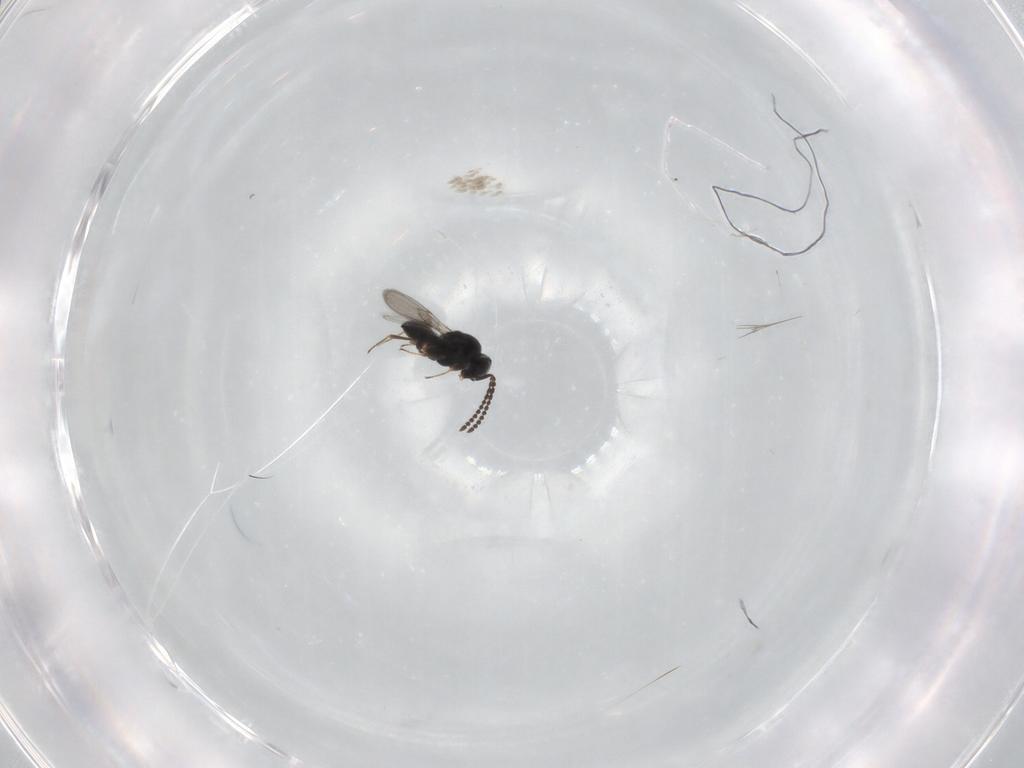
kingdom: Animalia
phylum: Arthropoda
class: Insecta
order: Hymenoptera
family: Scelionidae
